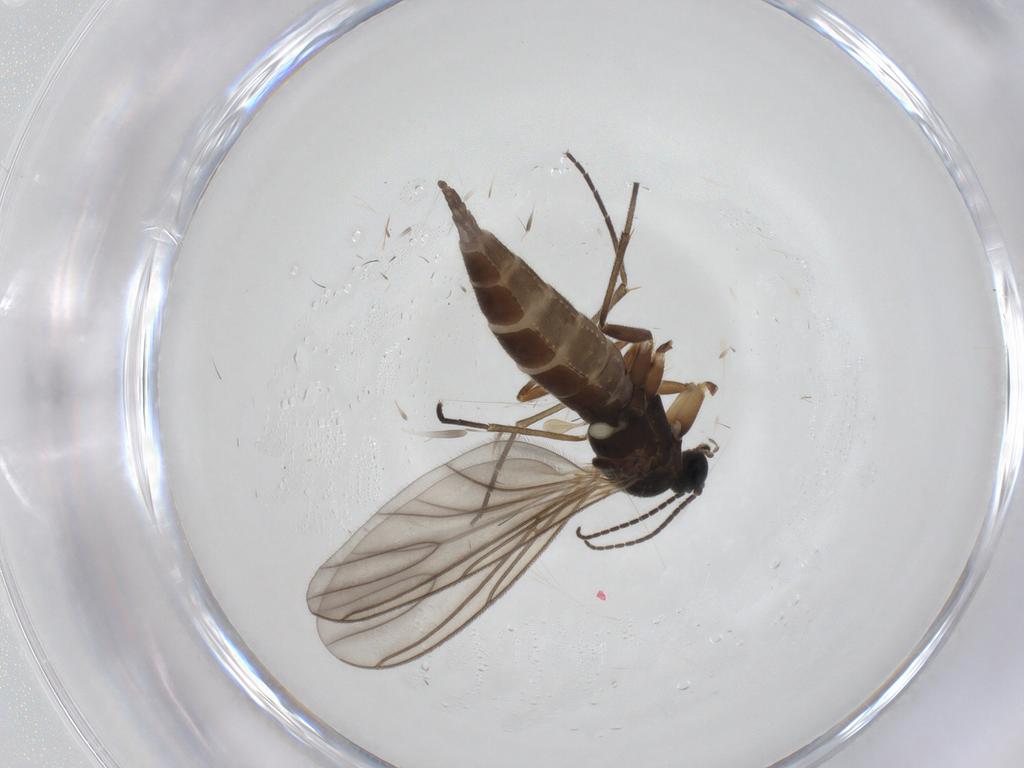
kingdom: Animalia
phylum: Arthropoda
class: Insecta
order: Diptera
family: Sciaridae
